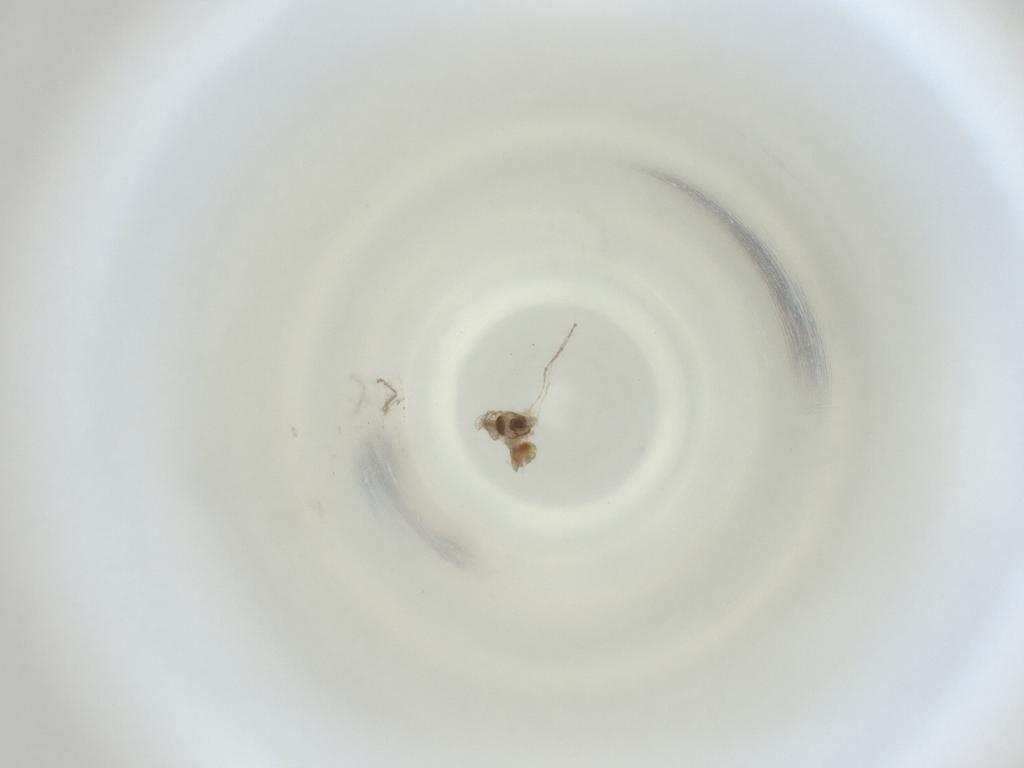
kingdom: Animalia
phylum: Arthropoda
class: Insecta
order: Diptera
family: Cecidomyiidae
